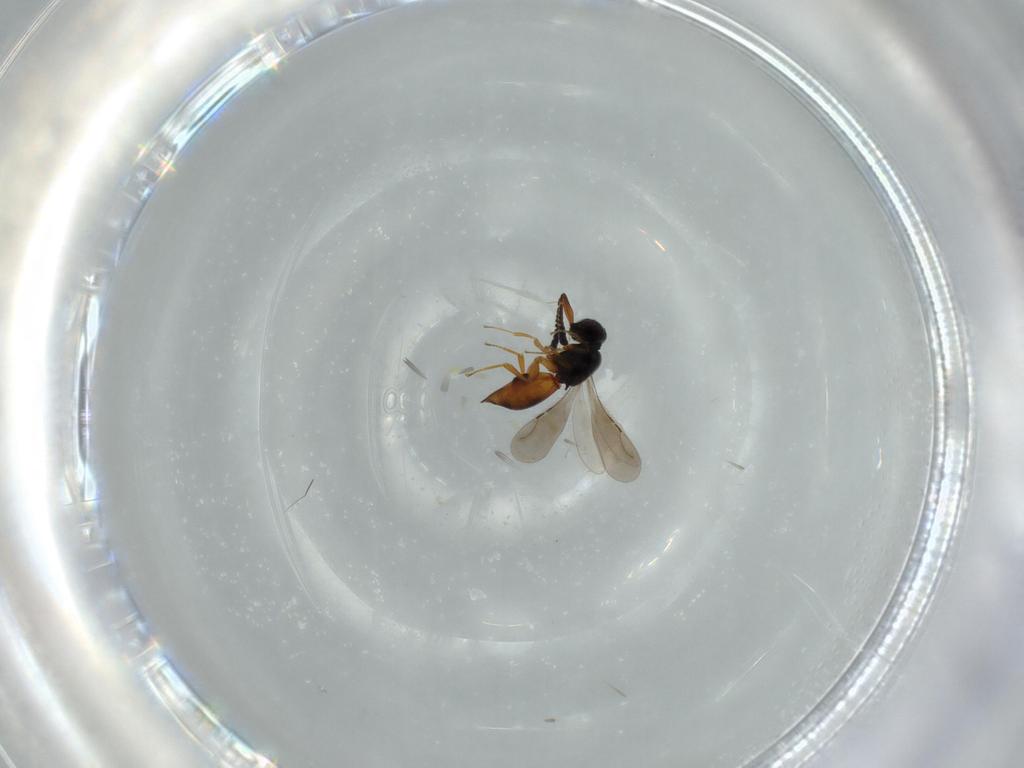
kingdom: Animalia
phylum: Arthropoda
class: Insecta
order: Hymenoptera
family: Ceraphronidae
